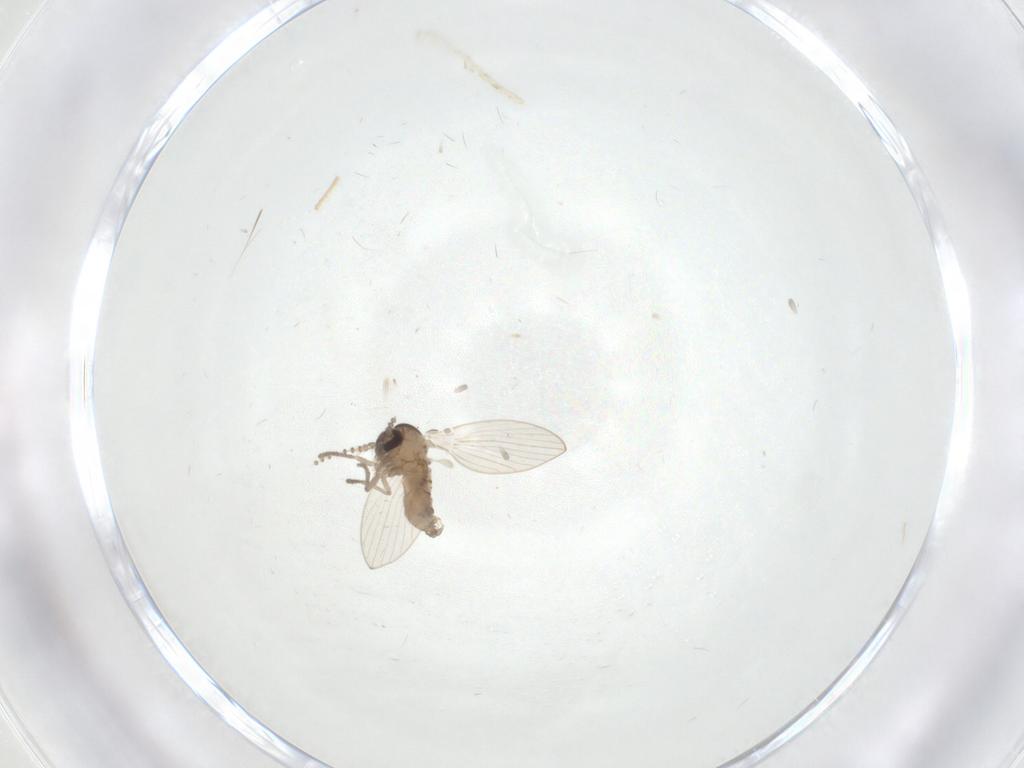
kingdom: Animalia
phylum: Arthropoda
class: Insecta
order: Diptera
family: Psychodidae
